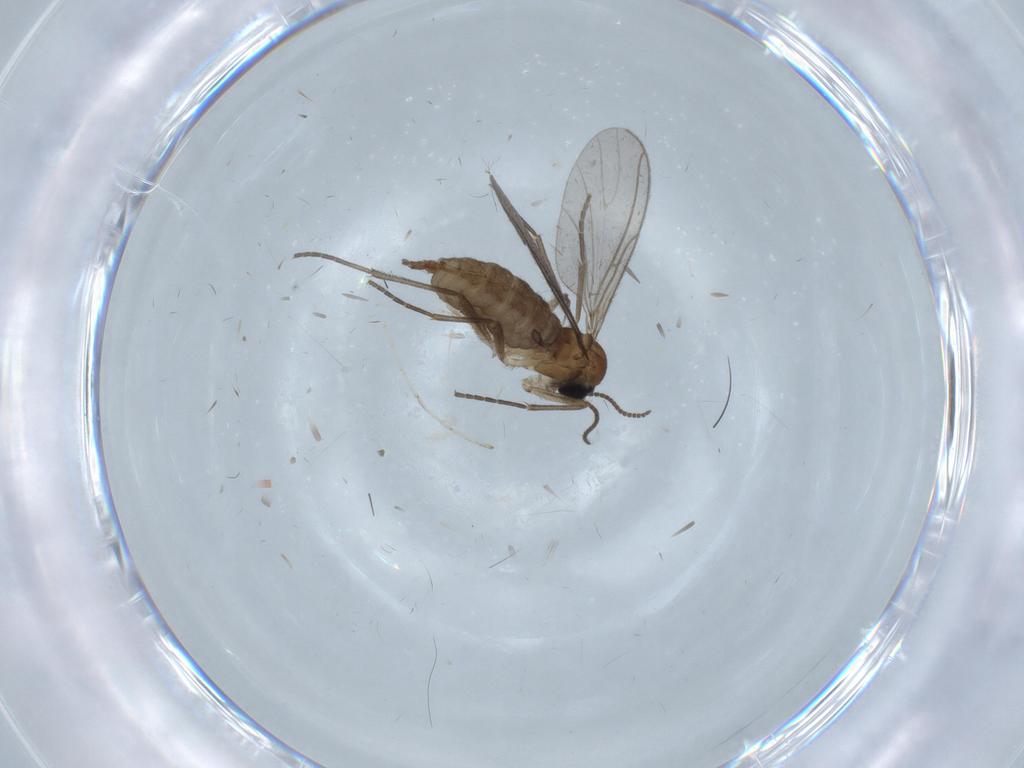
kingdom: Animalia
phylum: Arthropoda
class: Insecta
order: Diptera
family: Sciaridae
